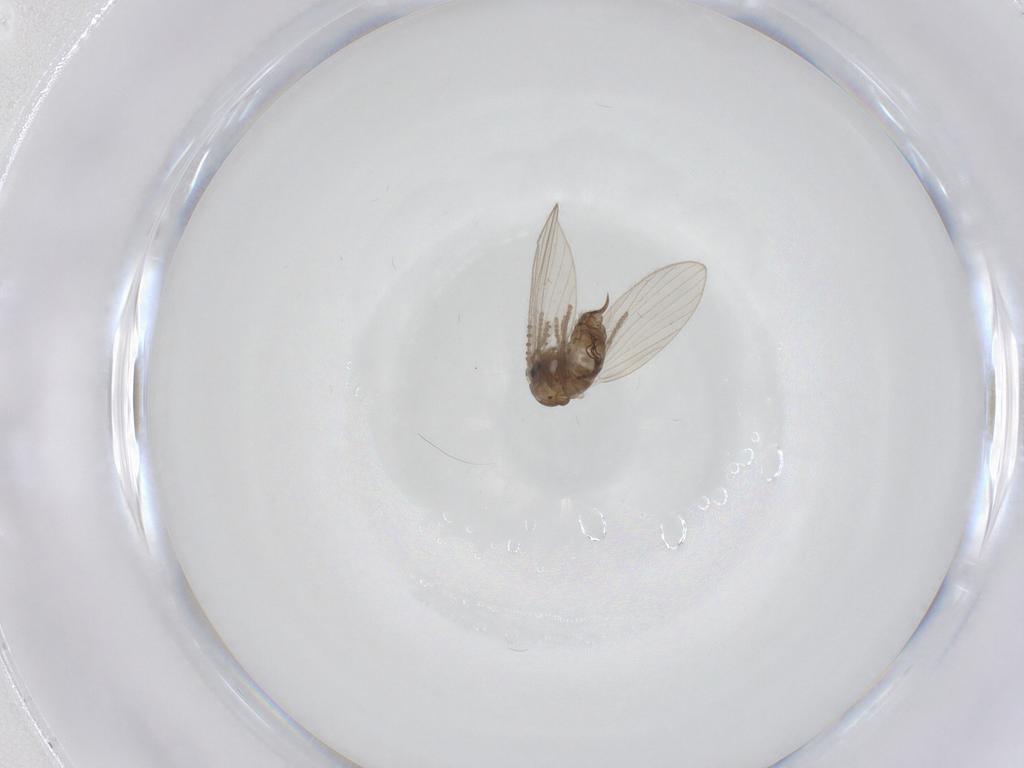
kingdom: Animalia
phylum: Arthropoda
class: Insecta
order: Diptera
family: Psychodidae
